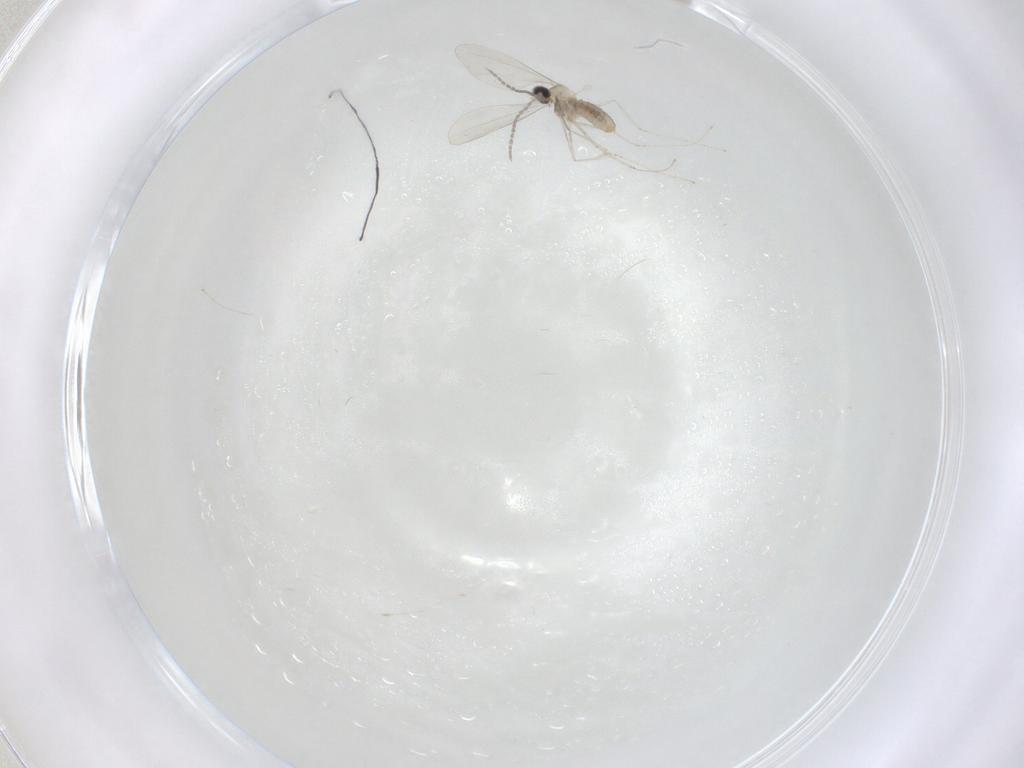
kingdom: Animalia
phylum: Arthropoda
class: Insecta
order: Diptera
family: Cecidomyiidae
